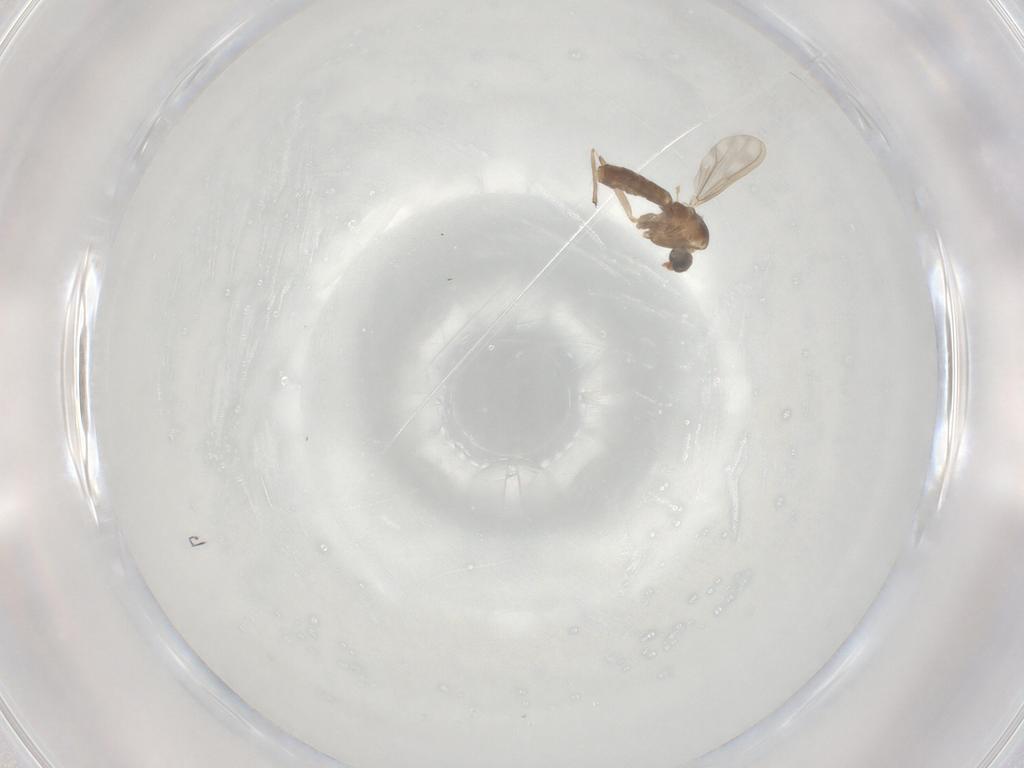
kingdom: Animalia
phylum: Arthropoda
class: Insecta
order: Diptera
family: Chironomidae
